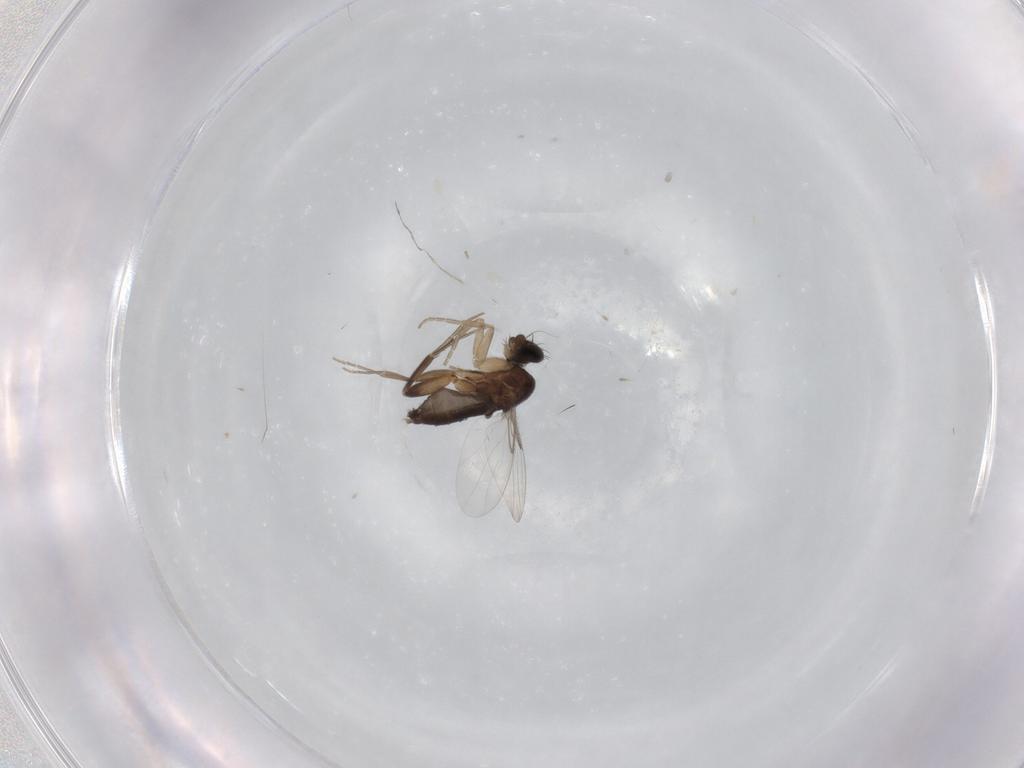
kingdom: Animalia
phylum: Arthropoda
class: Insecta
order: Diptera
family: Phoridae
